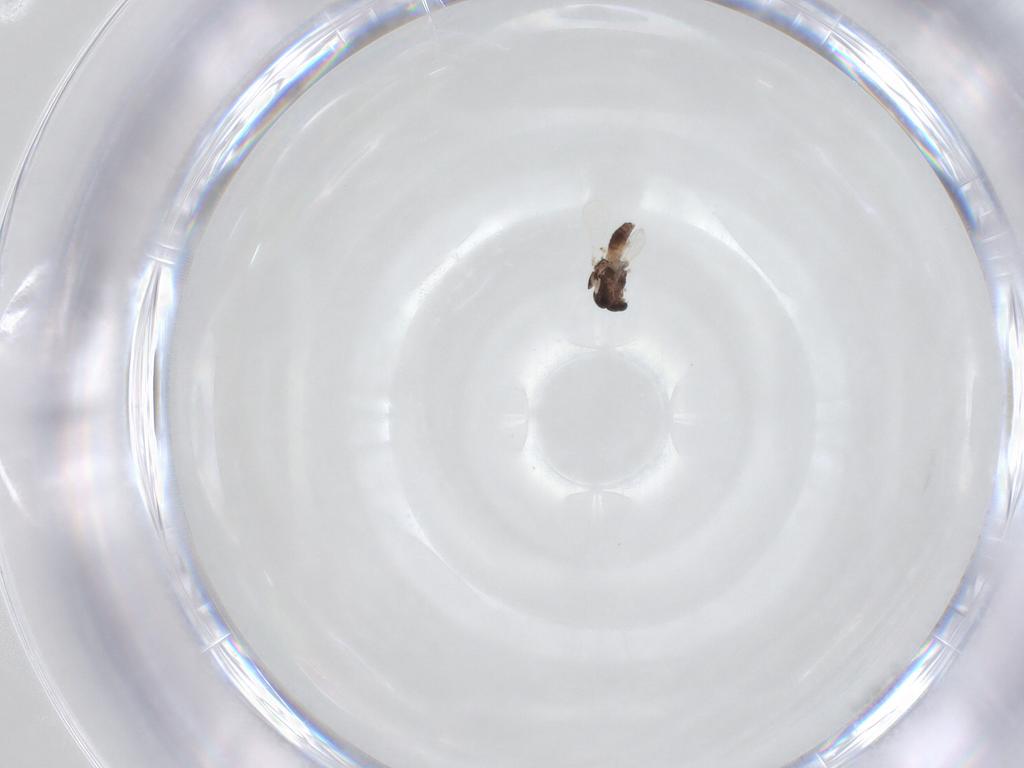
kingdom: Animalia
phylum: Arthropoda
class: Insecta
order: Diptera
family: Chironomidae
